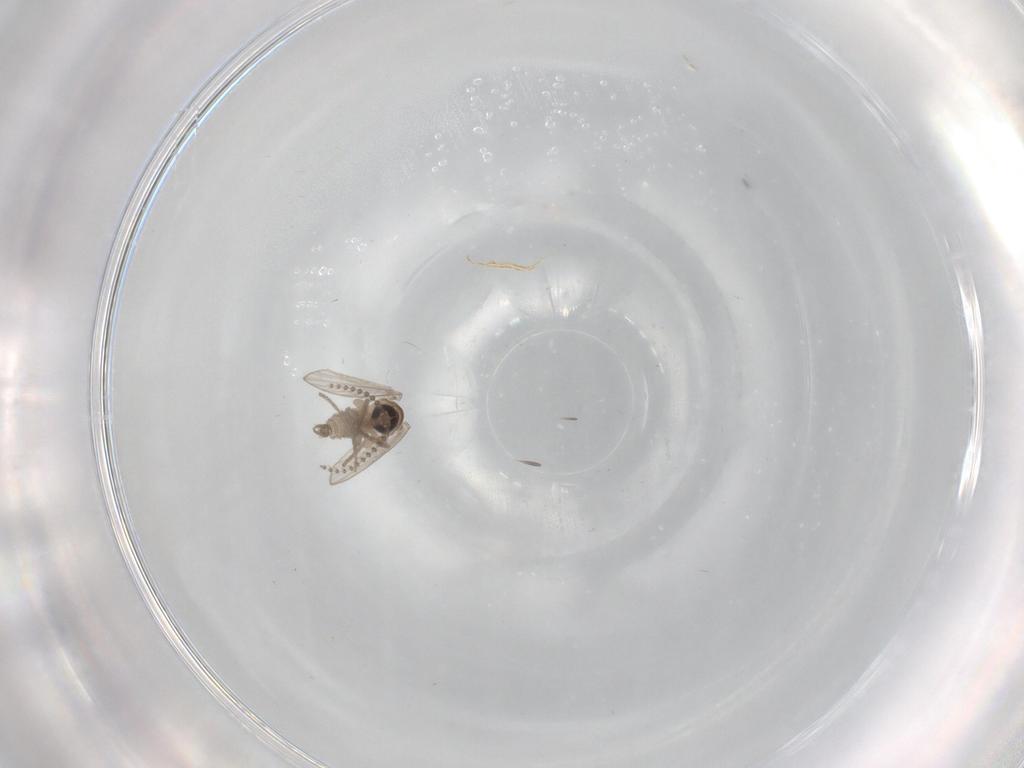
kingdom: Animalia
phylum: Arthropoda
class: Insecta
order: Diptera
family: Psychodidae
